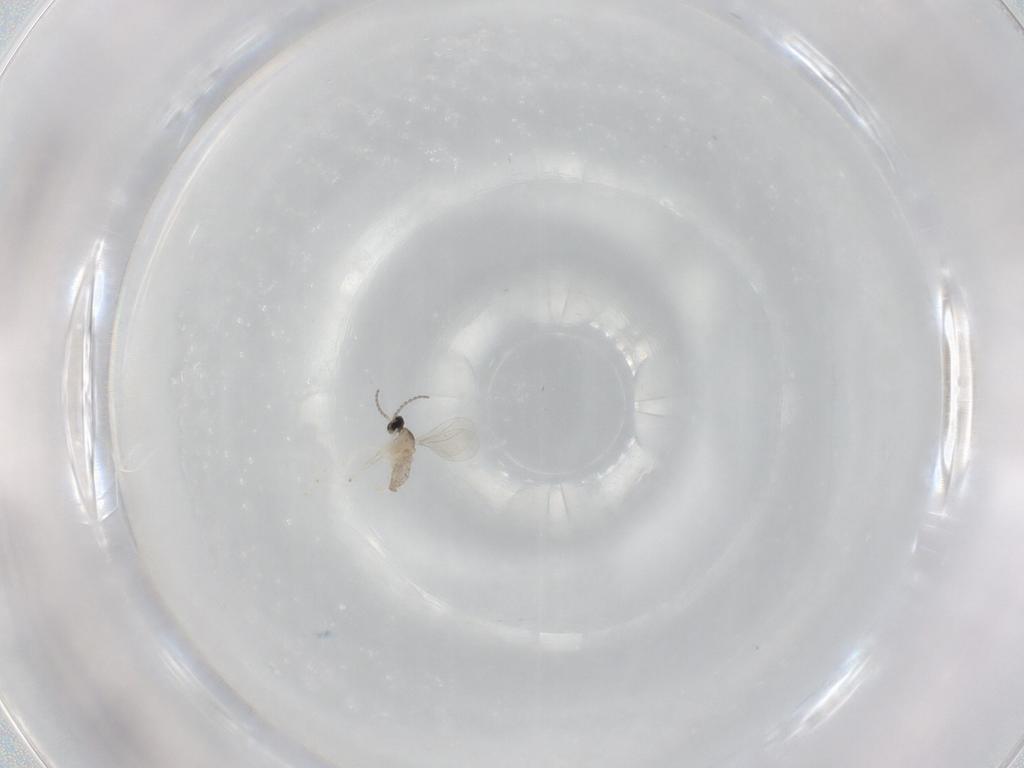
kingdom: Animalia
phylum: Arthropoda
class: Insecta
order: Diptera
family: Cecidomyiidae
